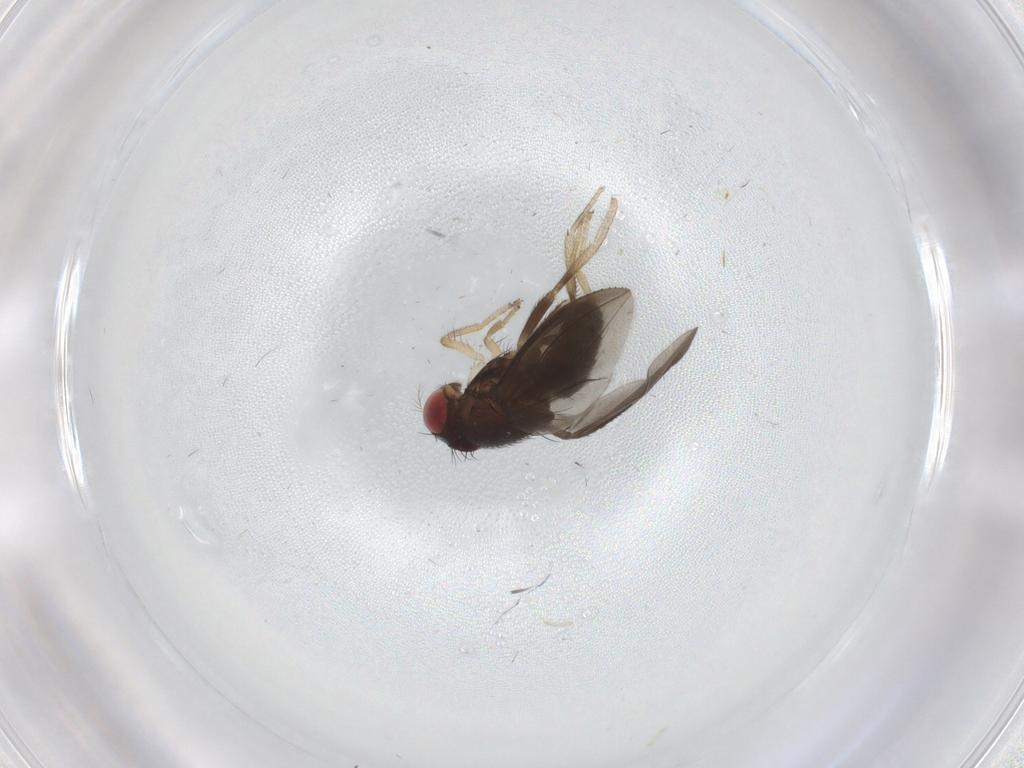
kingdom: Animalia
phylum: Arthropoda
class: Insecta
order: Diptera
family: Drosophilidae
